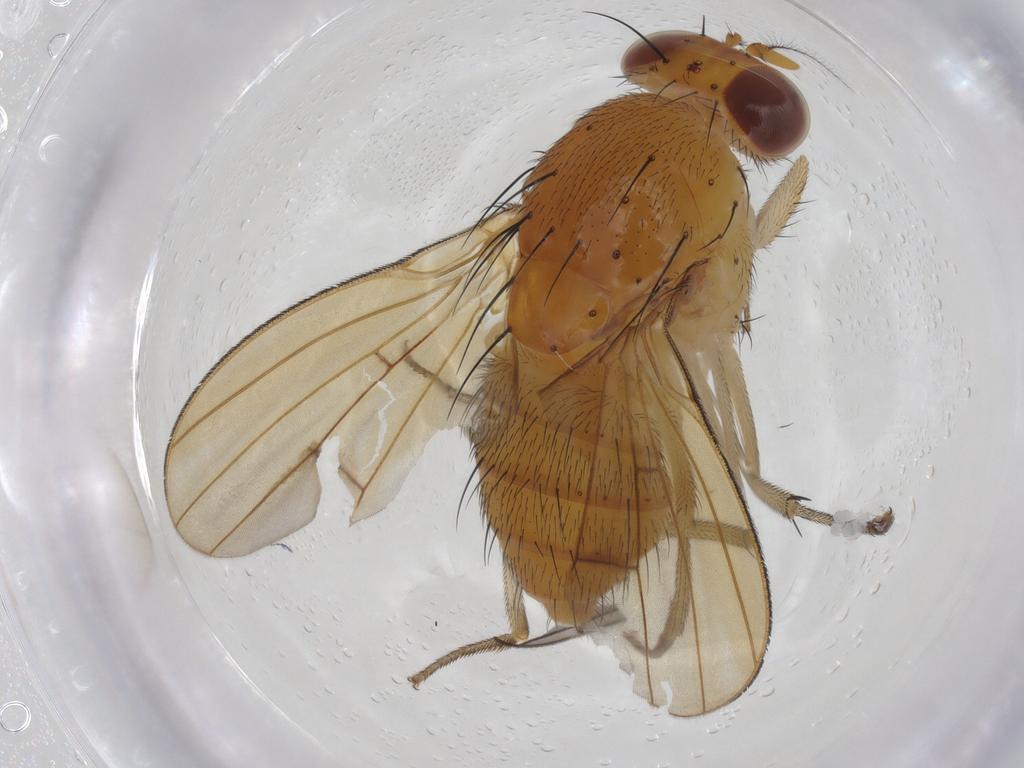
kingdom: Animalia
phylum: Arthropoda
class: Insecta
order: Diptera
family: Lauxaniidae
